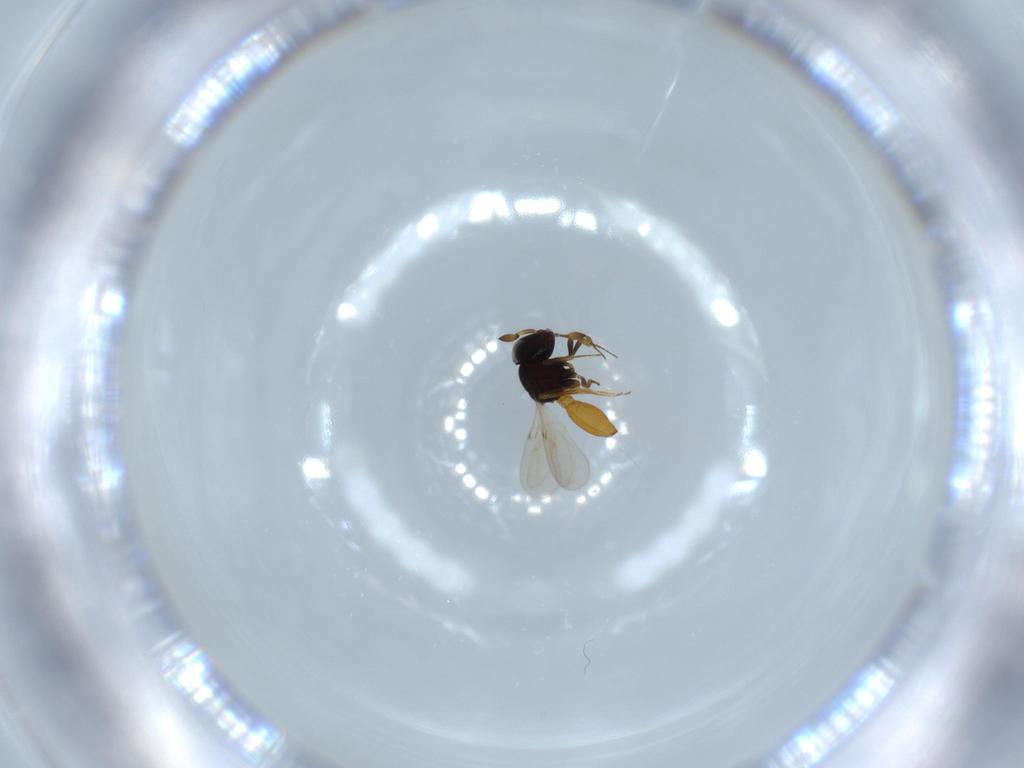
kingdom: Animalia
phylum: Arthropoda
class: Insecta
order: Hymenoptera
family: Scelionidae
